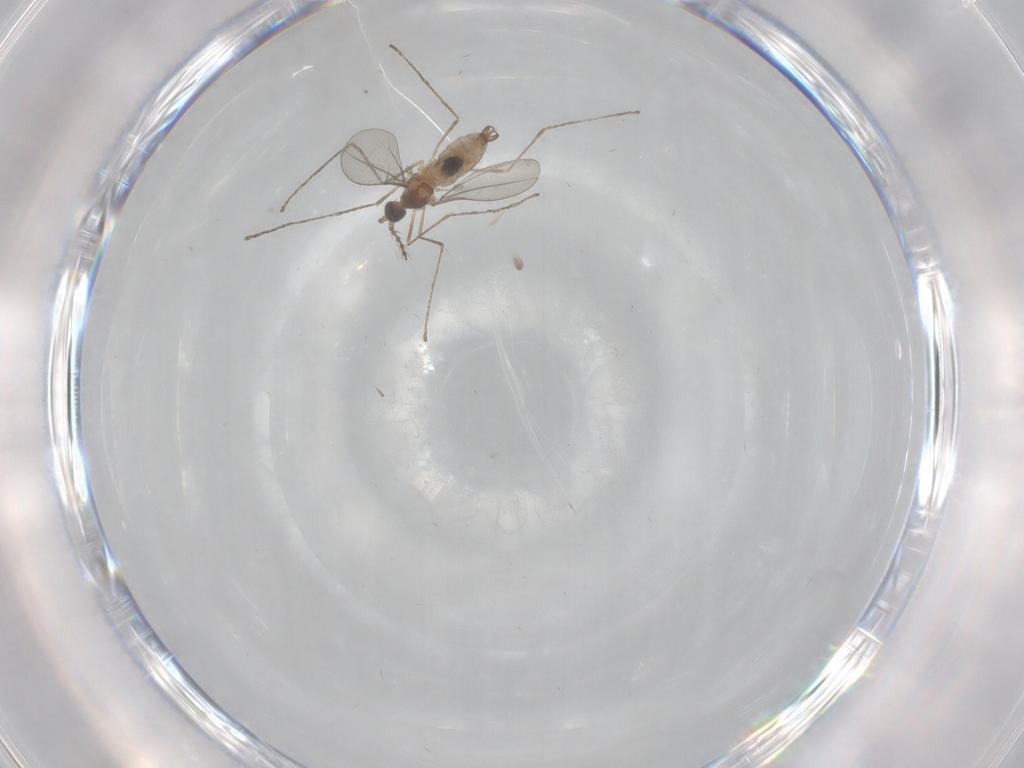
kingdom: Animalia
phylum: Arthropoda
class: Insecta
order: Diptera
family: Cecidomyiidae
